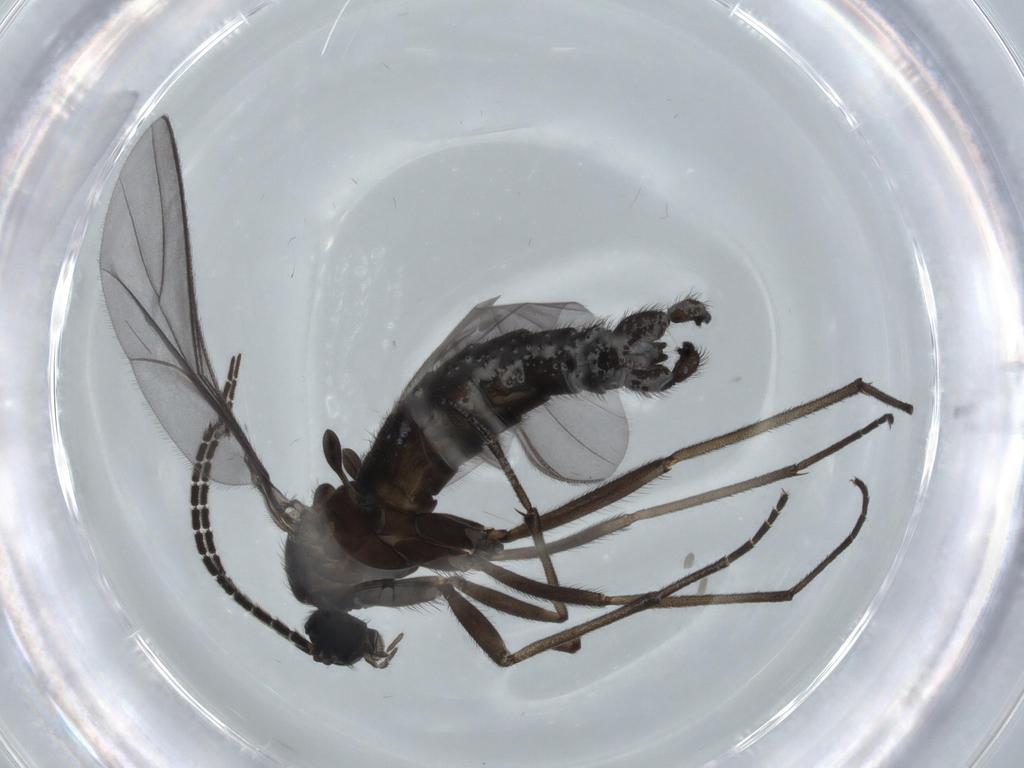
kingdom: Animalia
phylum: Arthropoda
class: Insecta
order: Diptera
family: Sciaridae
